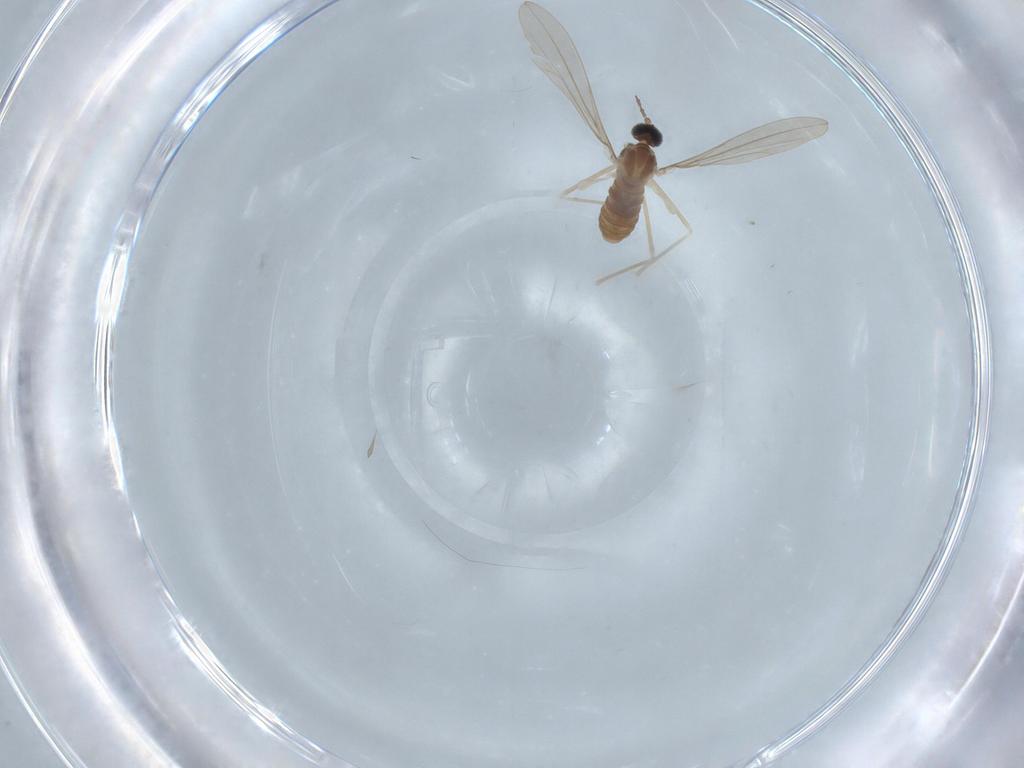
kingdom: Animalia
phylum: Arthropoda
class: Insecta
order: Diptera
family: Cecidomyiidae
